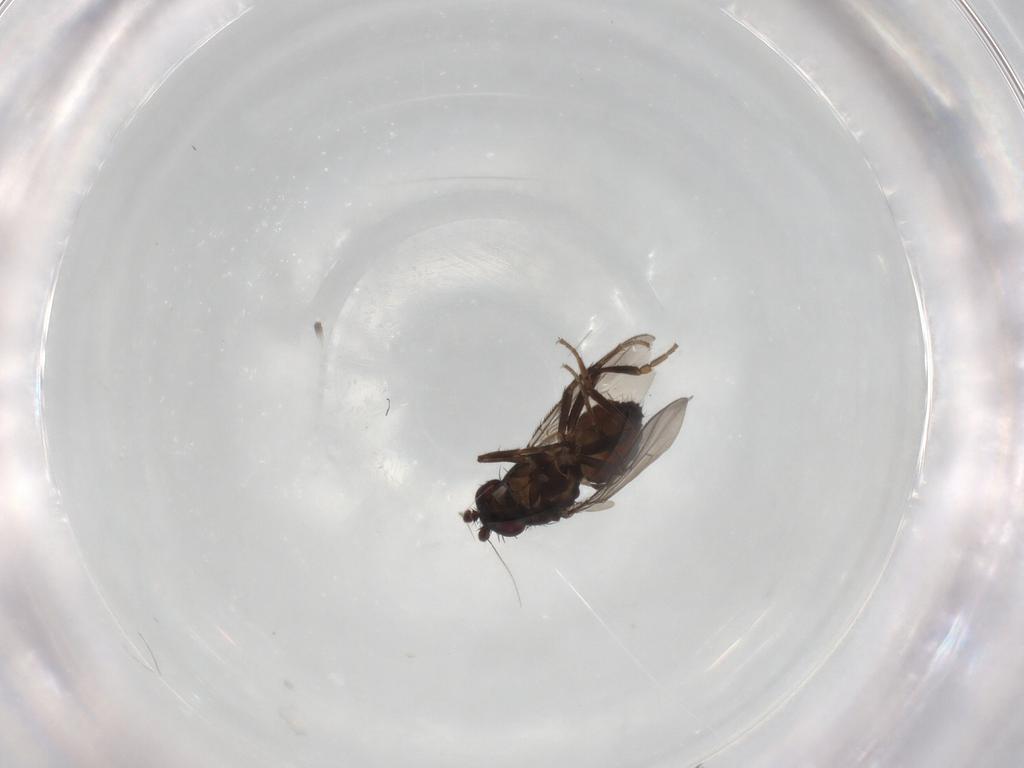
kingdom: Animalia
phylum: Arthropoda
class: Insecta
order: Diptera
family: Sphaeroceridae
